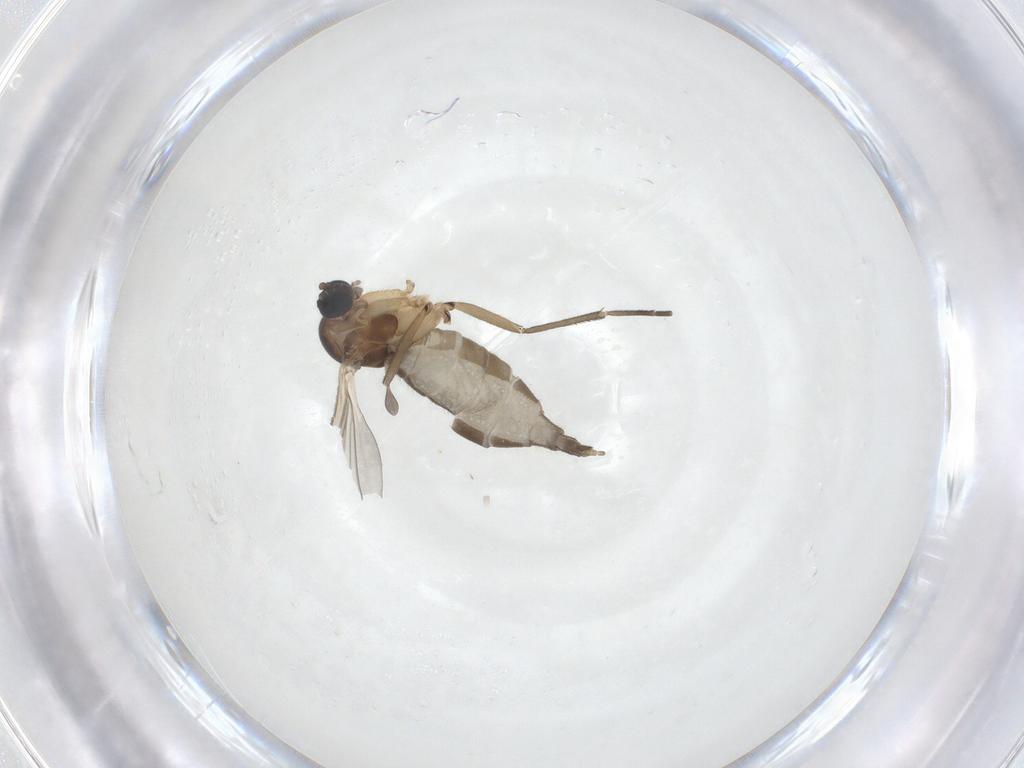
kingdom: Animalia
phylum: Arthropoda
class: Insecta
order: Diptera
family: Sciaridae
